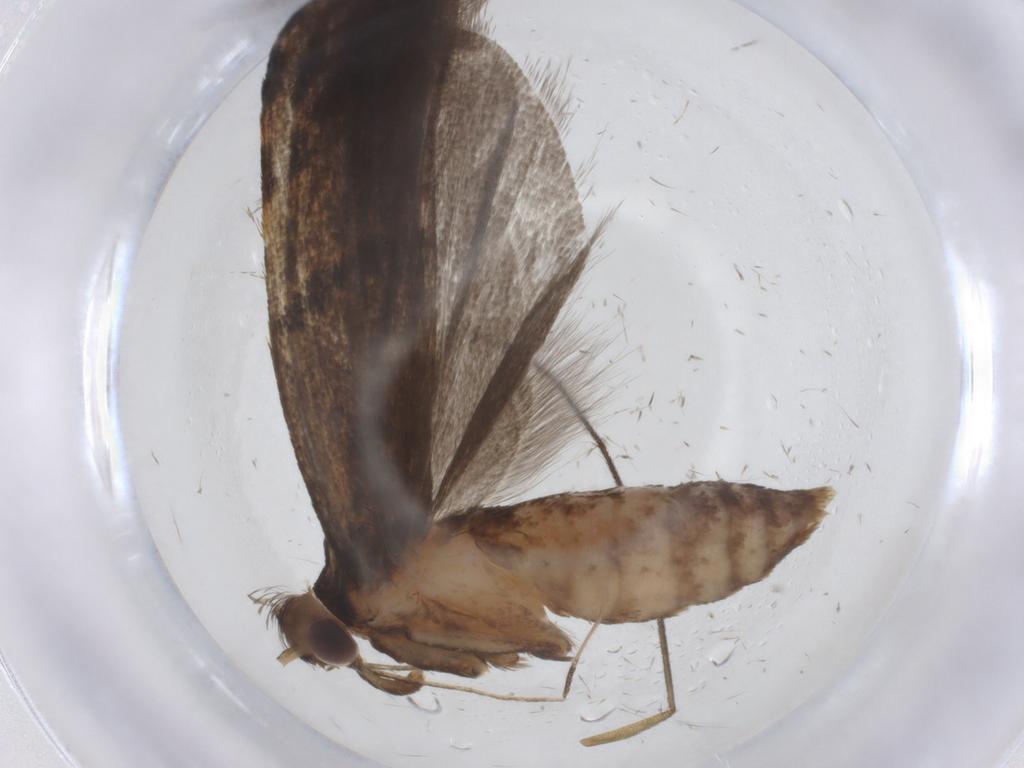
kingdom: Animalia
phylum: Arthropoda
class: Insecta
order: Lepidoptera
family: Autostichidae
